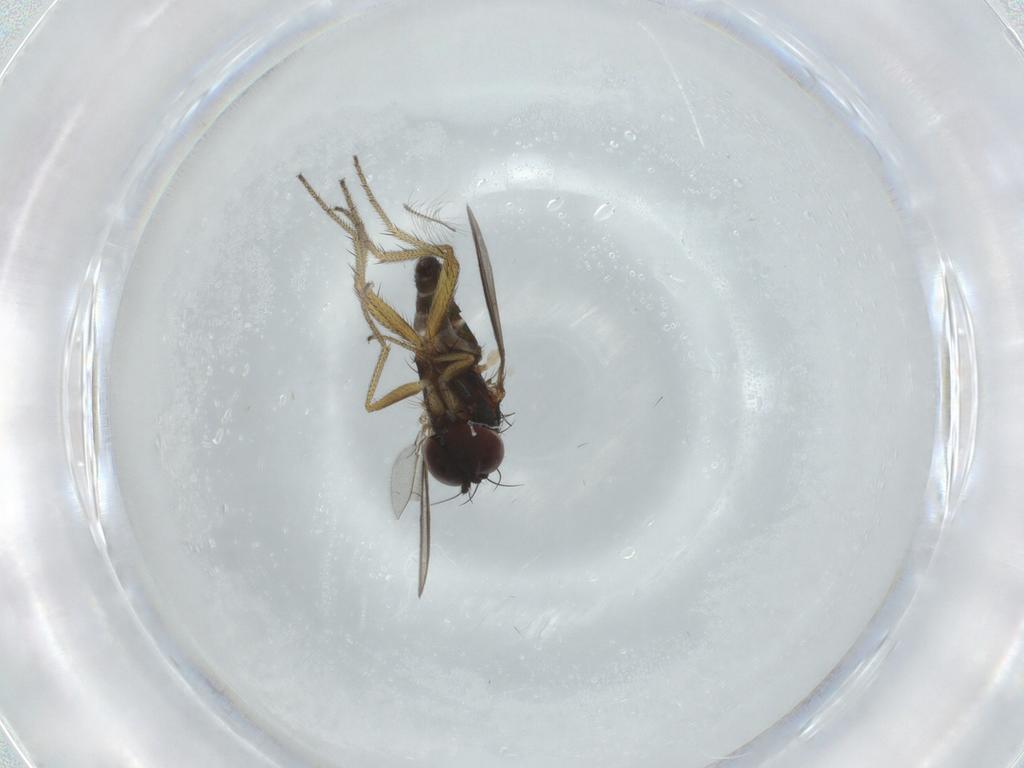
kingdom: Animalia
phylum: Arthropoda
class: Insecta
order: Diptera
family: Chironomidae
